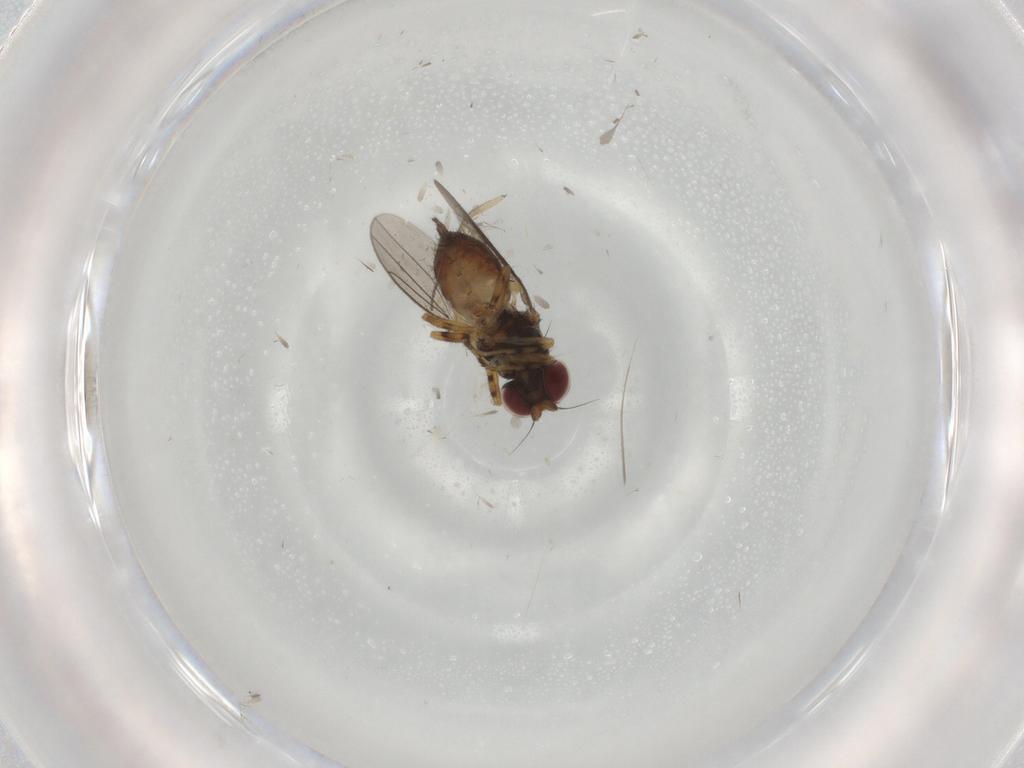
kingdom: Animalia
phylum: Arthropoda
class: Insecta
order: Diptera
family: Chloropidae
